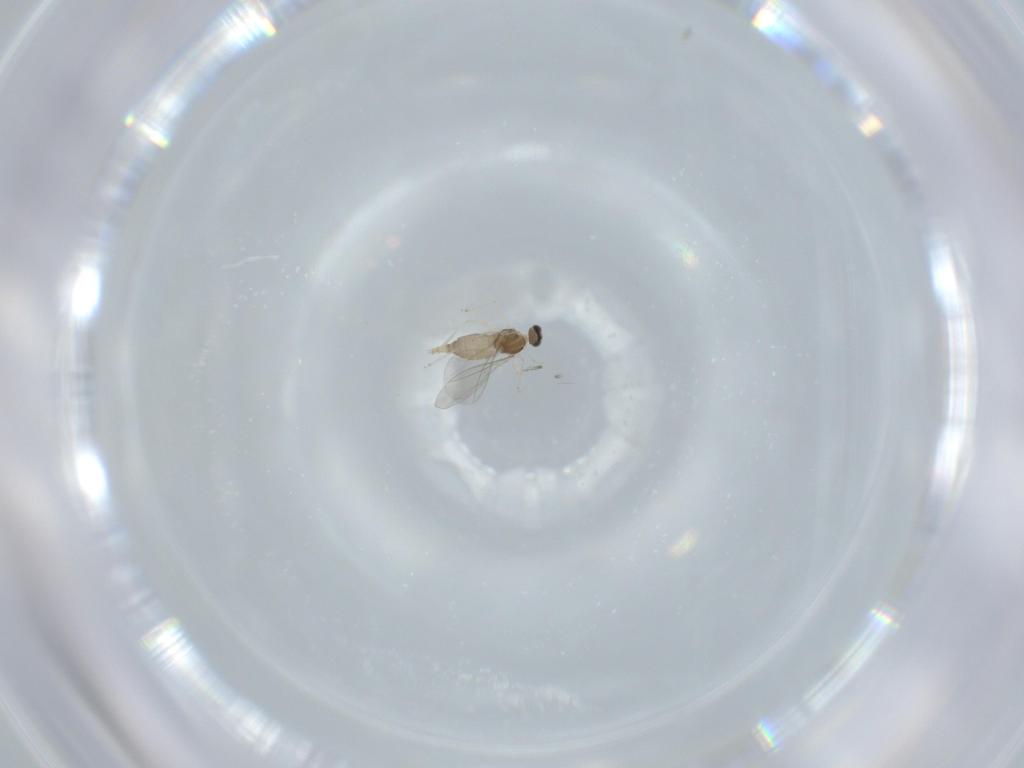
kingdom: Animalia
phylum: Arthropoda
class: Insecta
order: Diptera
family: Cecidomyiidae
